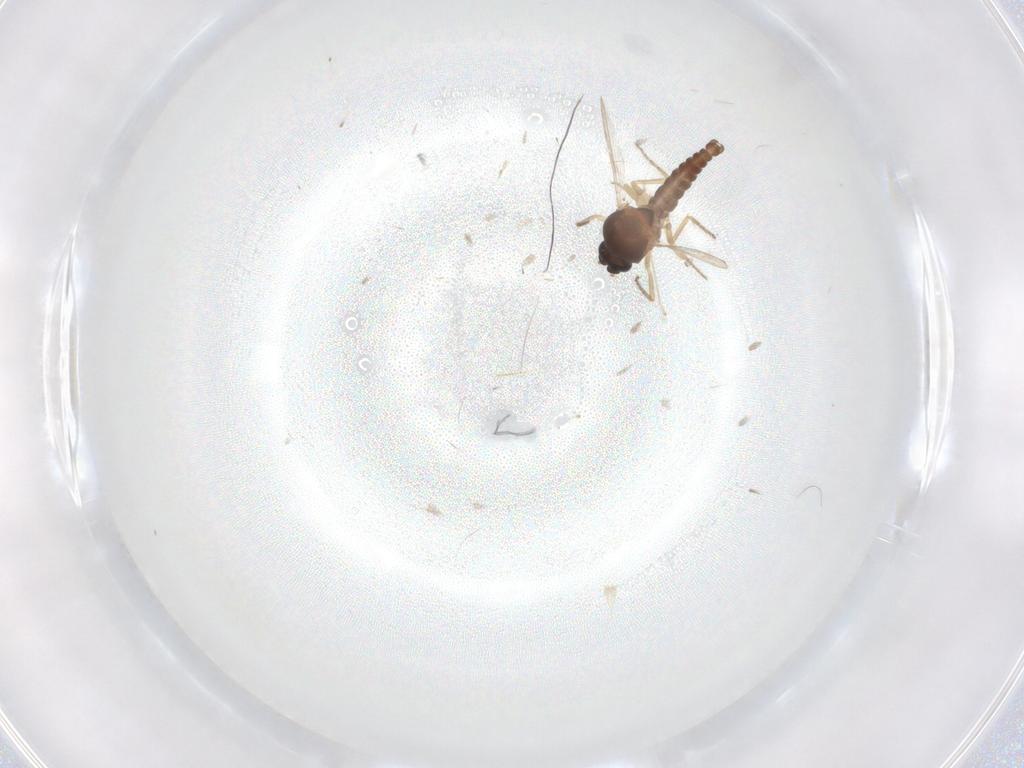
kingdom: Animalia
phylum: Arthropoda
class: Insecta
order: Diptera
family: Ceratopogonidae
